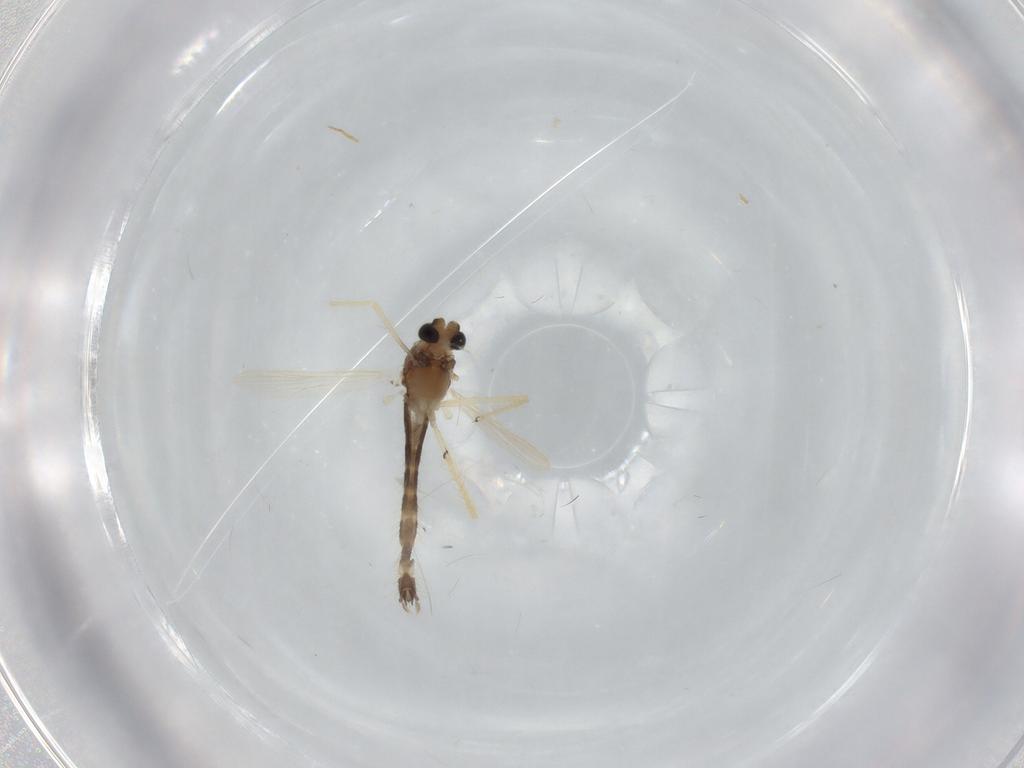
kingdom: Animalia
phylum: Arthropoda
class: Insecta
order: Diptera
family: Chironomidae
